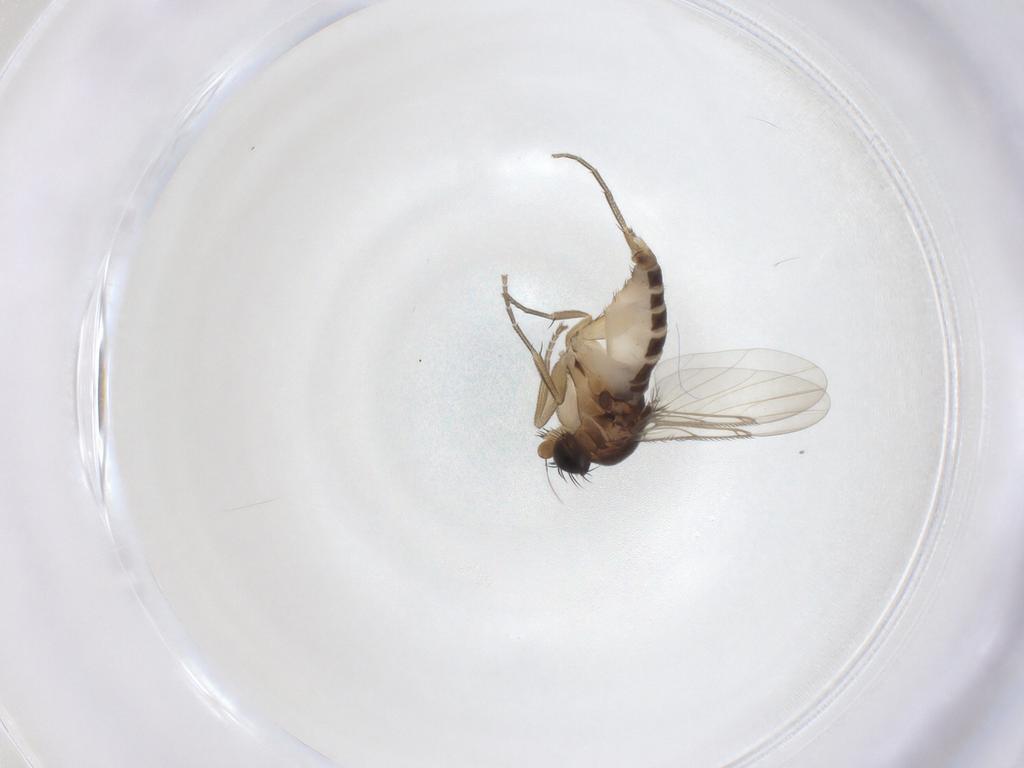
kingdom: Animalia
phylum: Arthropoda
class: Insecta
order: Diptera
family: Phoridae
